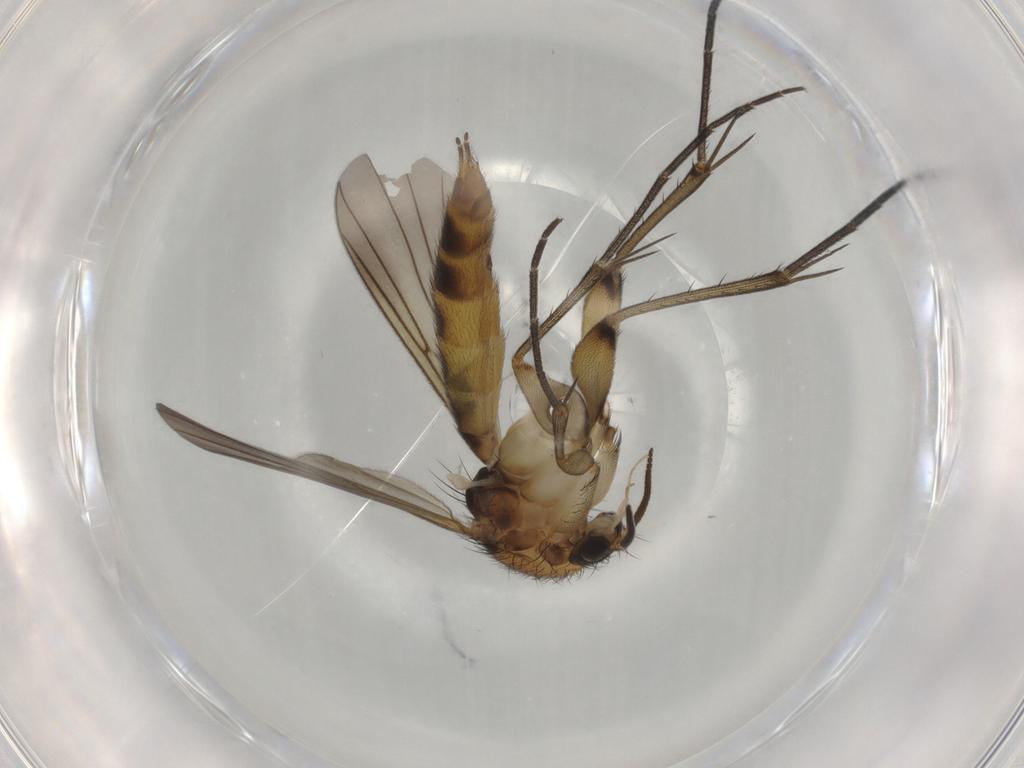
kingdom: Animalia
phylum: Arthropoda
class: Insecta
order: Diptera
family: Mycetophilidae
